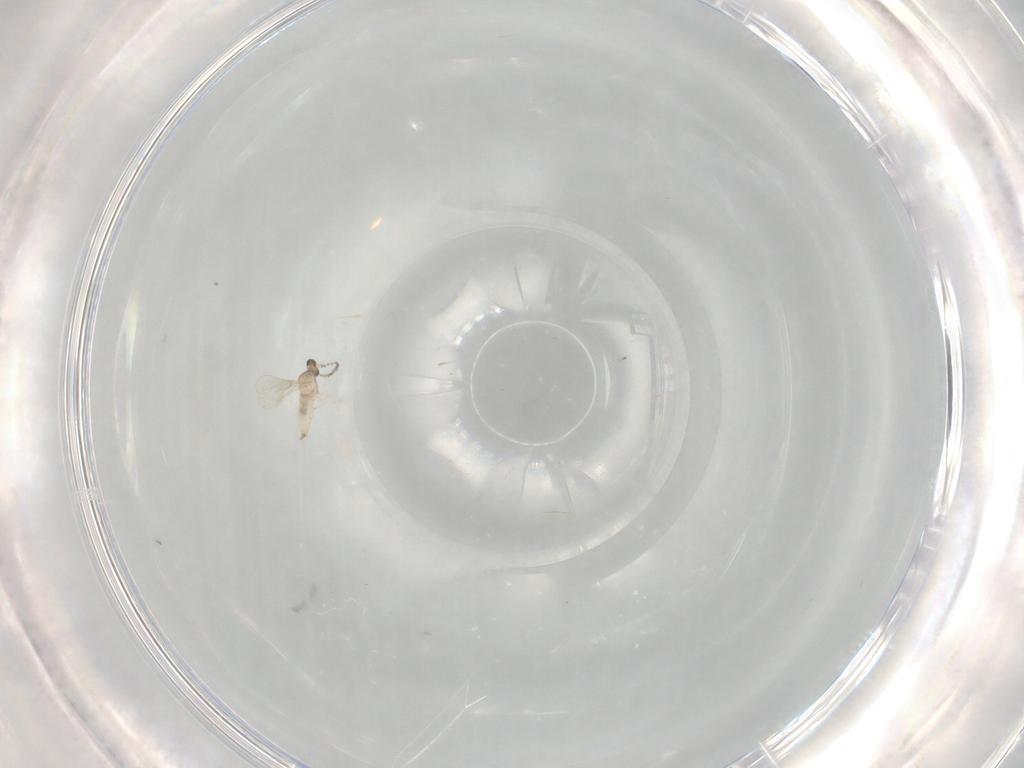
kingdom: Animalia
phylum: Arthropoda
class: Insecta
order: Diptera
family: Cecidomyiidae
